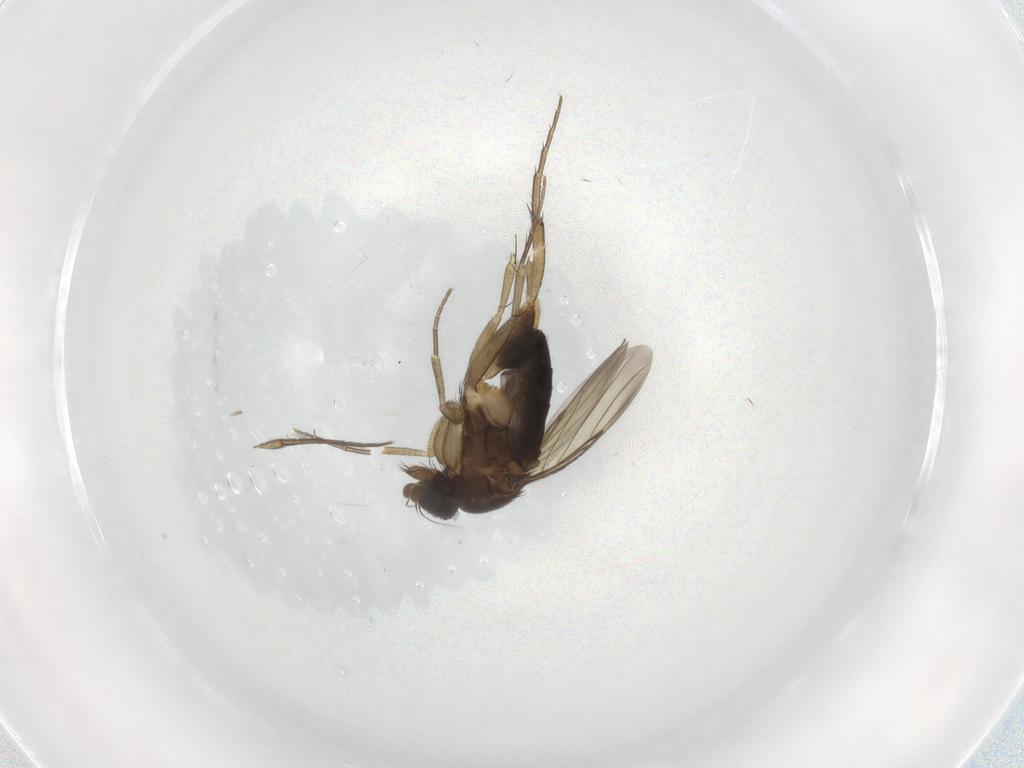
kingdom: Animalia
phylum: Arthropoda
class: Insecta
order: Diptera
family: Phoridae
